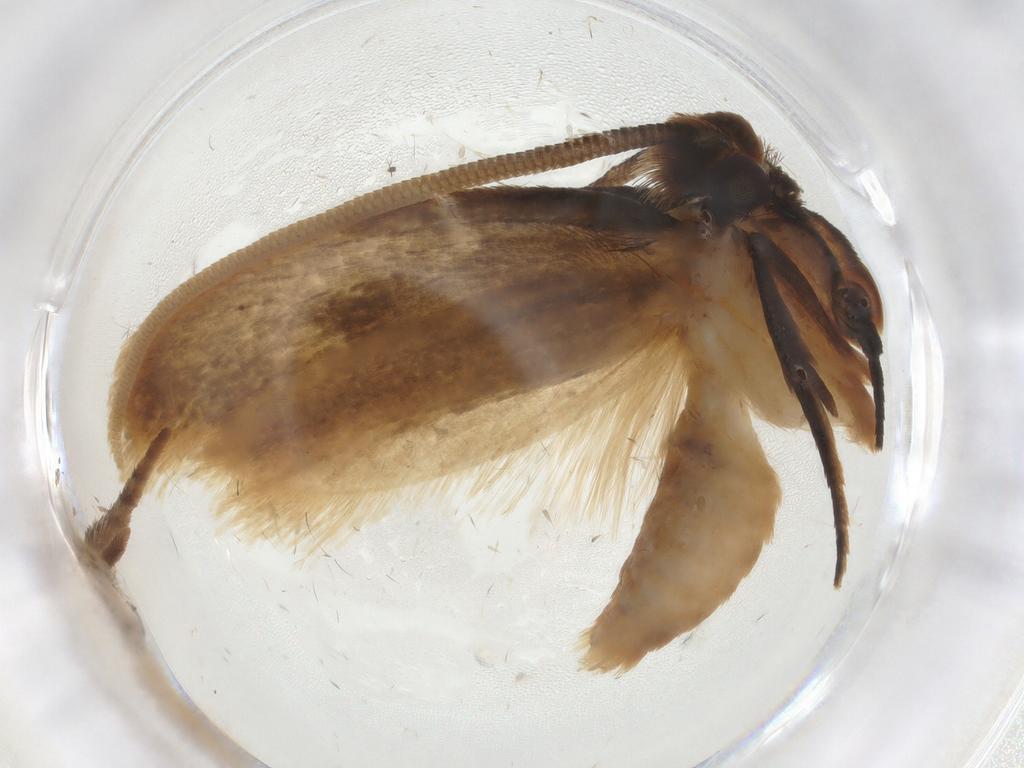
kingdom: Animalia
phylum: Arthropoda
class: Insecta
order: Lepidoptera
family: Tineidae
